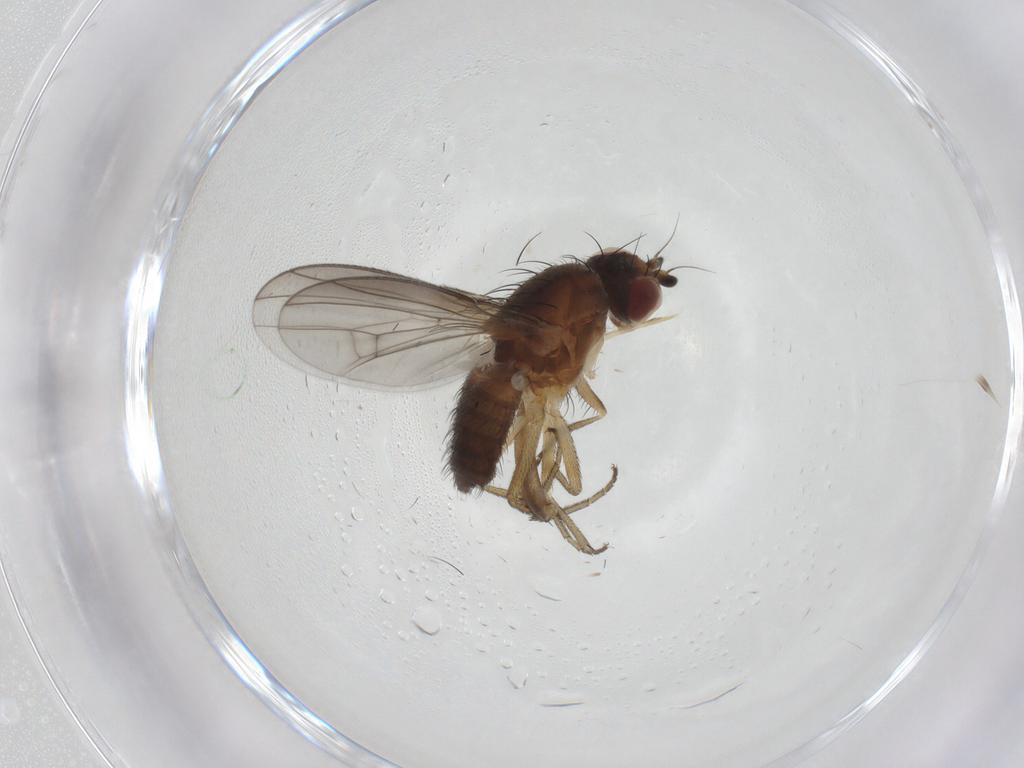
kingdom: Animalia
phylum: Arthropoda
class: Insecta
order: Diptera
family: Heleomyzidae
